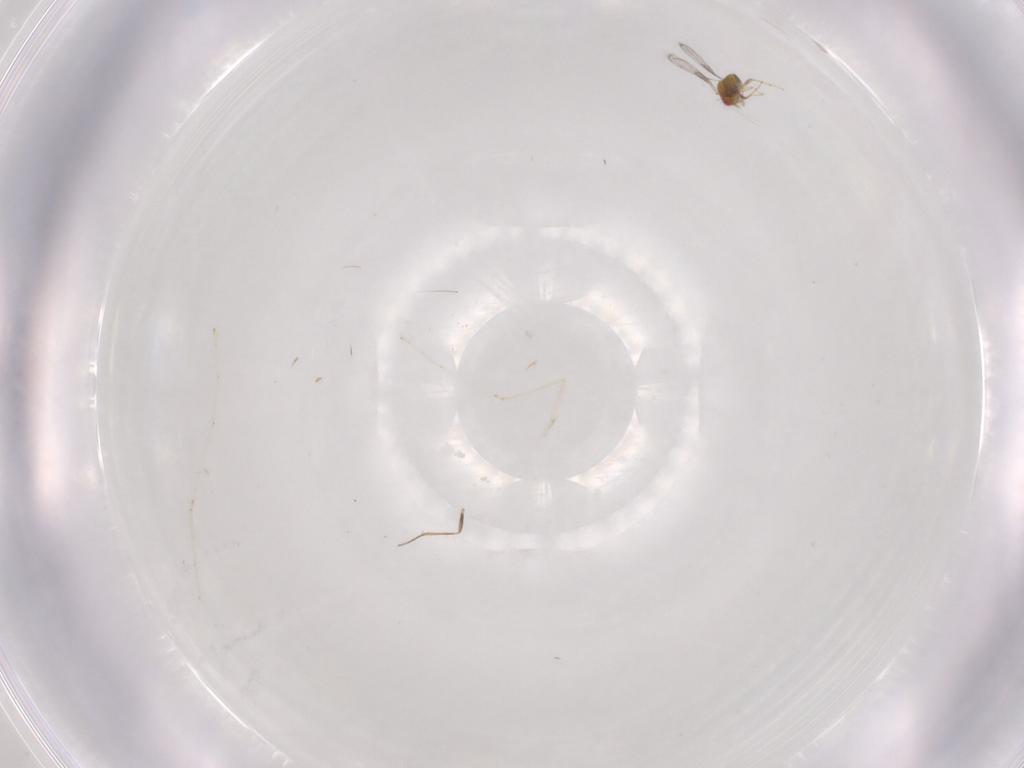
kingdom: Animalia
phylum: Arthropoda
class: Insecta
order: Hymenoptera
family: Trichogrammatidae
